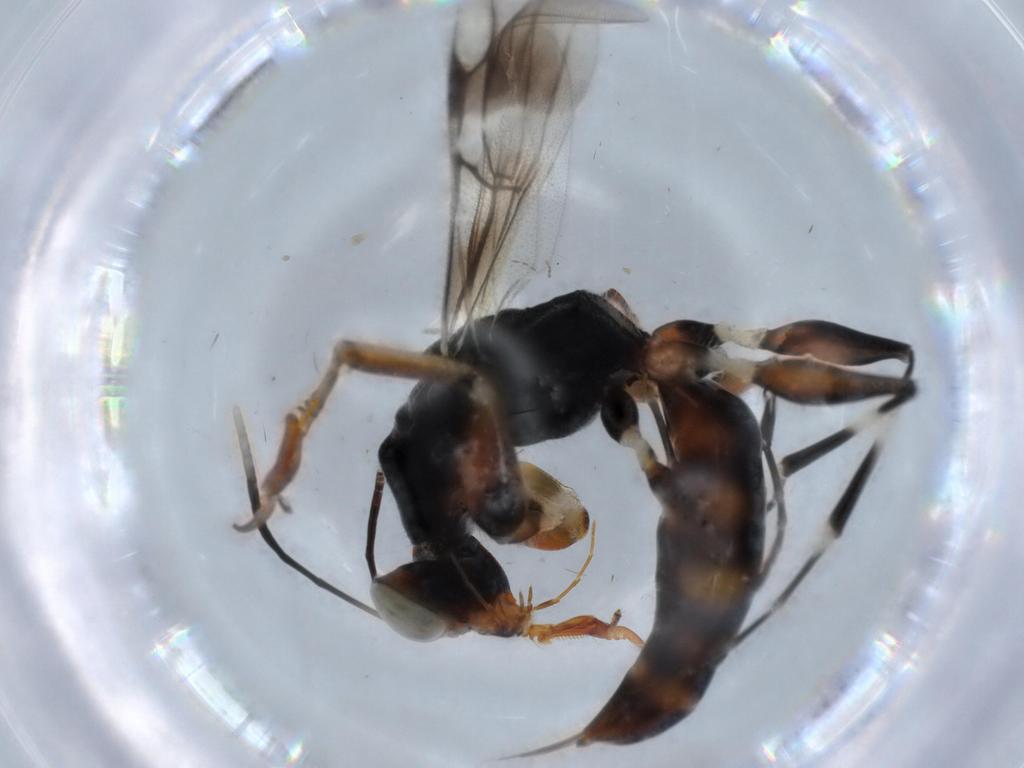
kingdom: Animalia
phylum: Arthropoda
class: Insecta
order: Hymenoptera
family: Dryinidae
